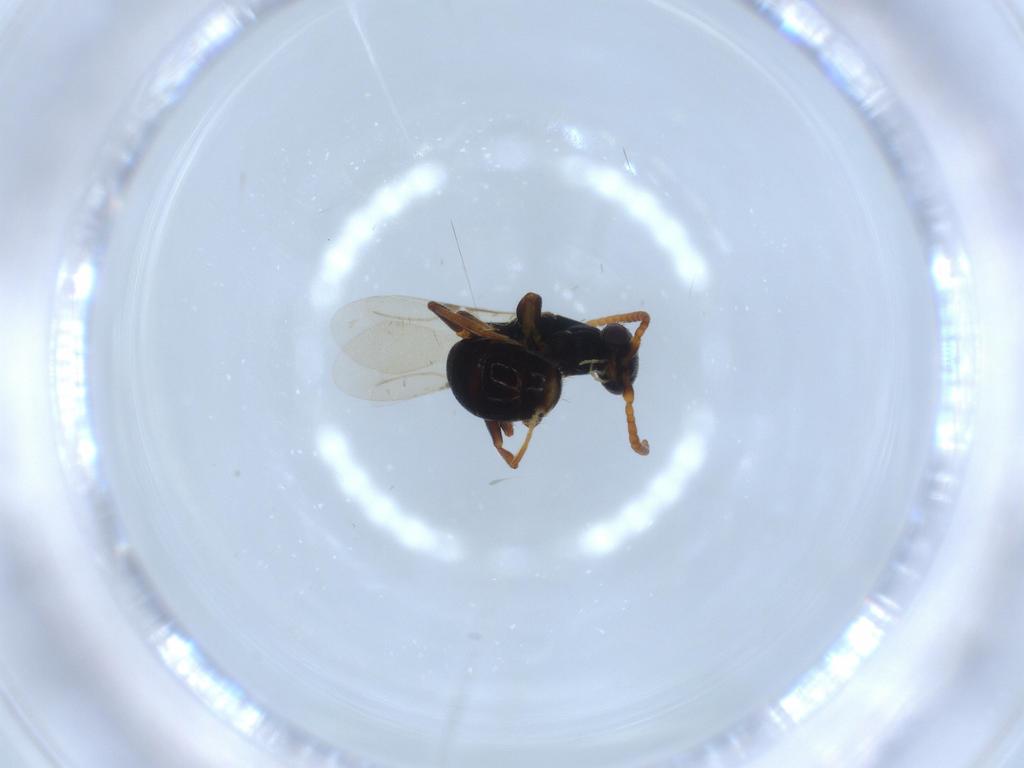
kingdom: Animalia
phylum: Arthropoda
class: Insecta
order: Hymenoptera
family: Bethylidae
